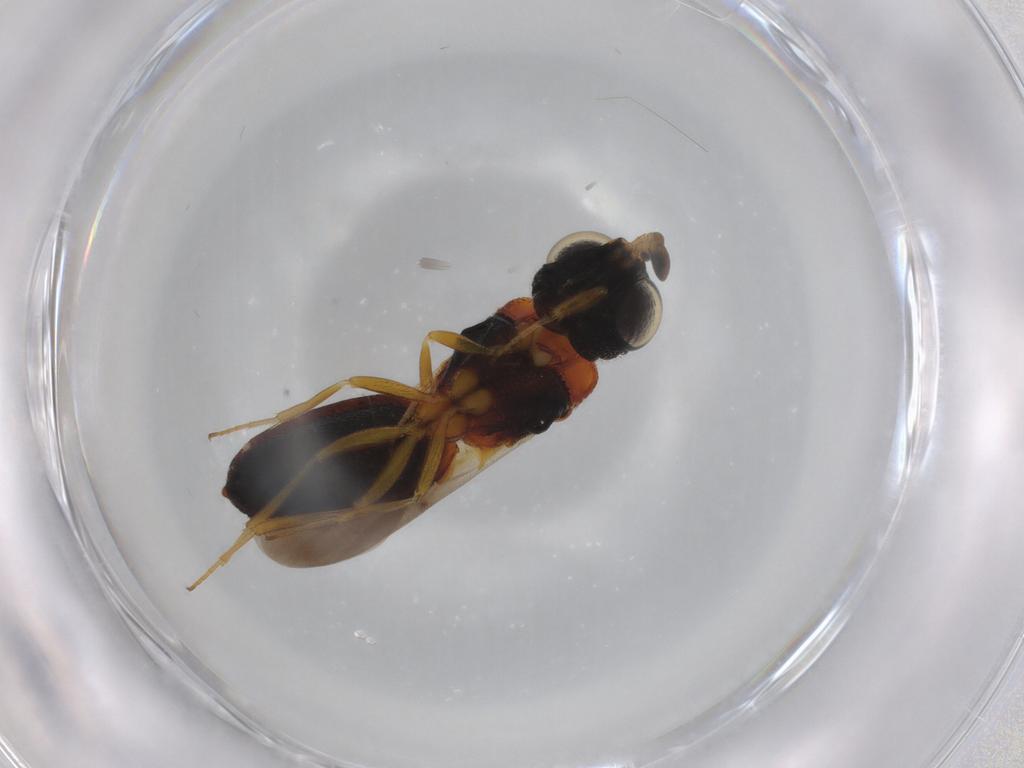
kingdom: Animalia
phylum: Arthropoda
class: Insecta
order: Hymenoptera
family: Scelionidae
